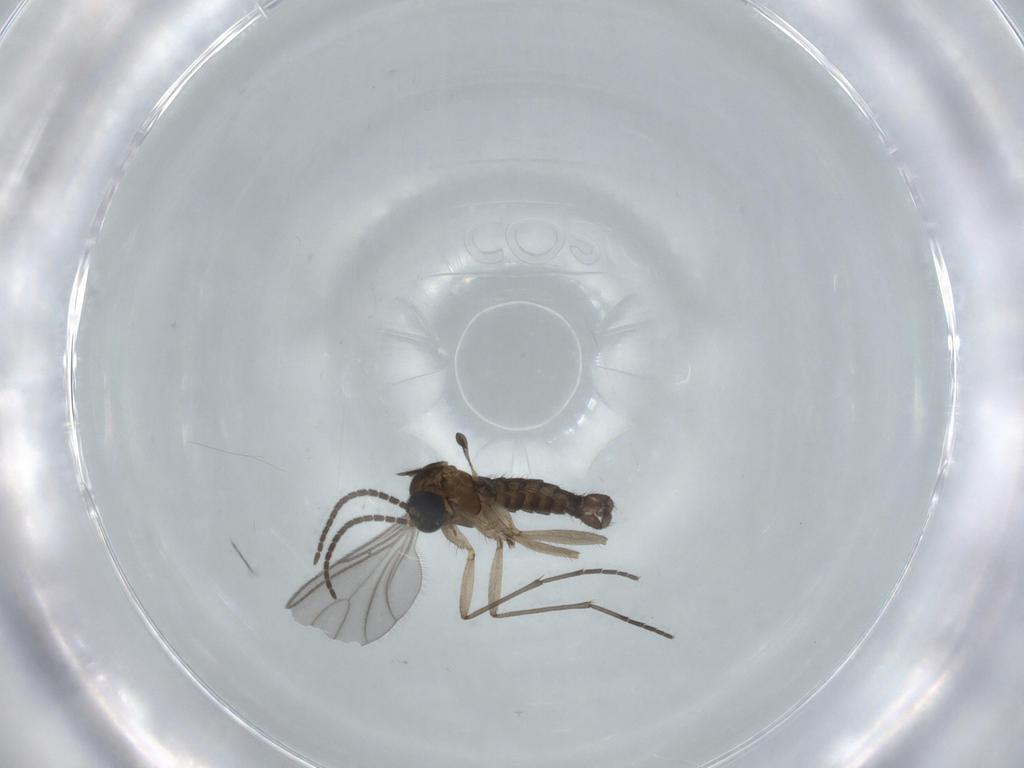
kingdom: Animalia
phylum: Arthropoda
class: Insecta
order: Diptera
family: Sciaridae
